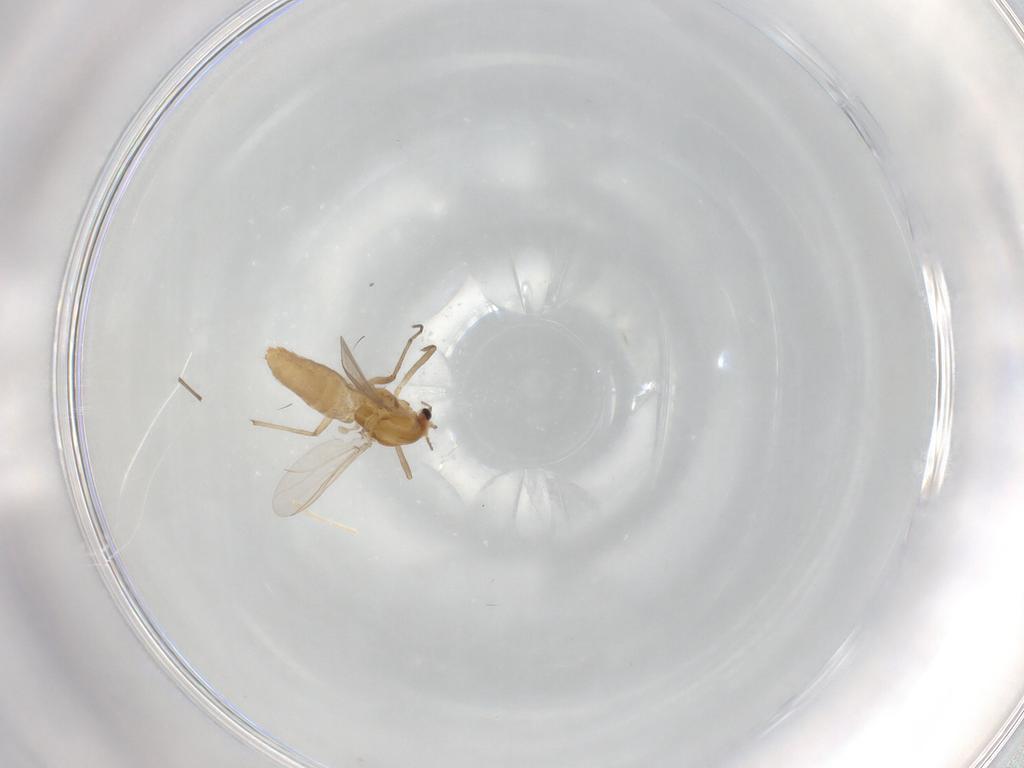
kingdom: Animalia
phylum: Arthropoda
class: Insecta
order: Diptera
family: Chironomidae
